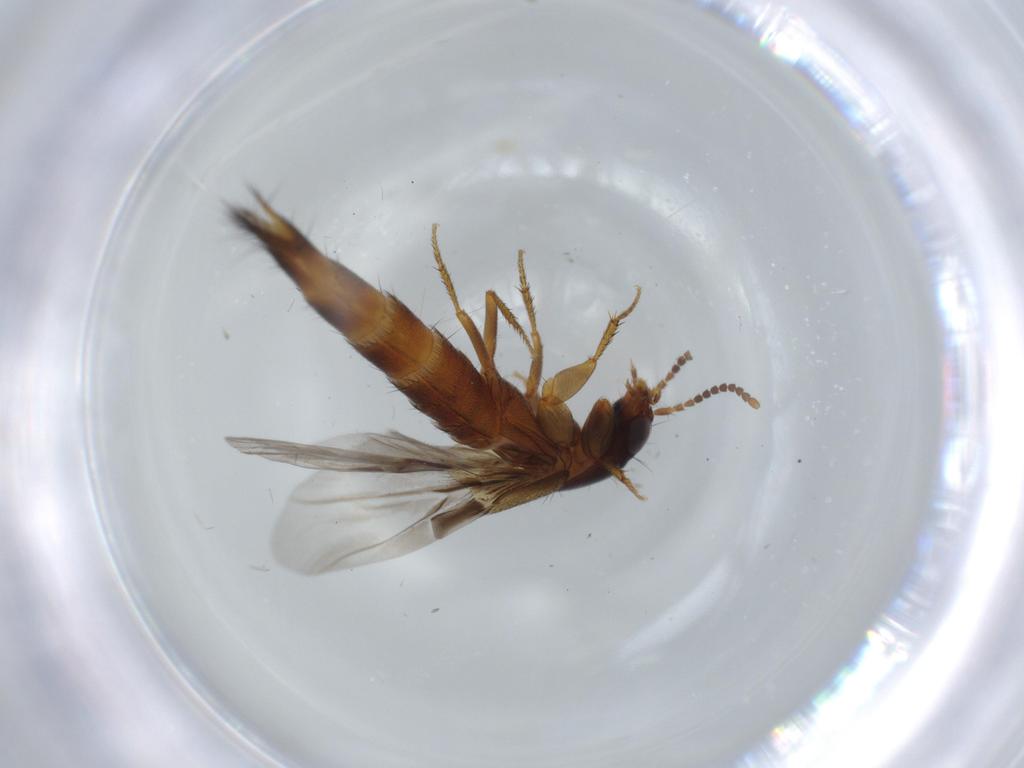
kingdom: Animalia
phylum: Arthropoda
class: Insecta
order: Coleoptera
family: Staphylinidae
